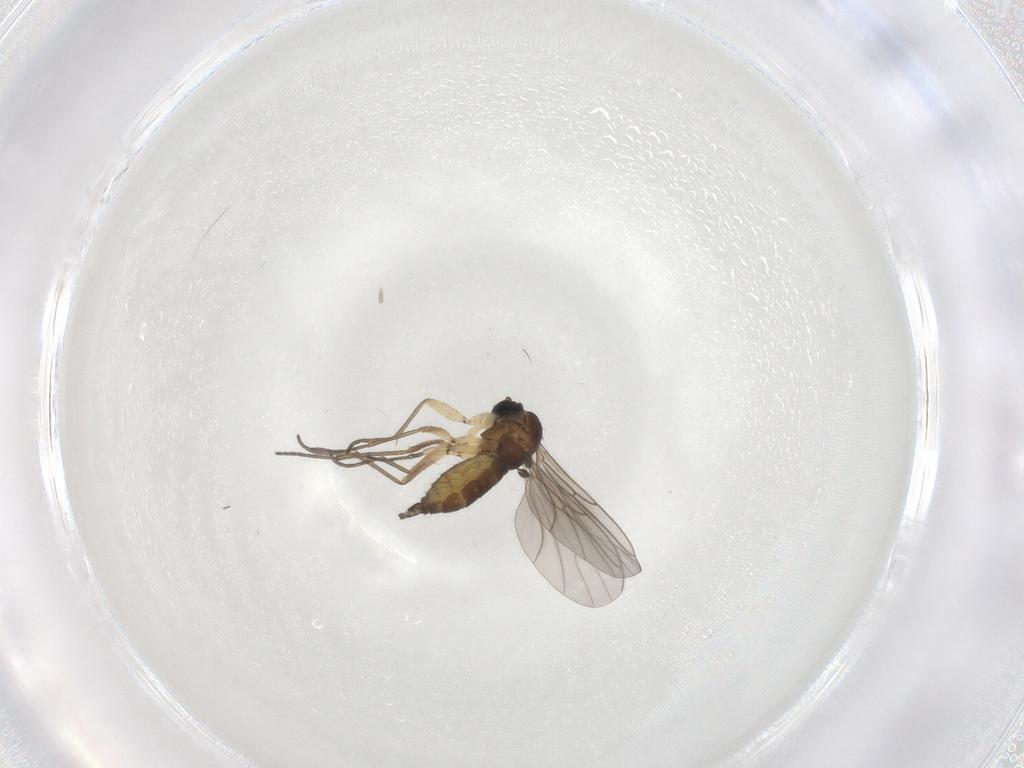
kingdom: Animalia
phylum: Arthropoda
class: Insecta
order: Diptera
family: Sciaridae
